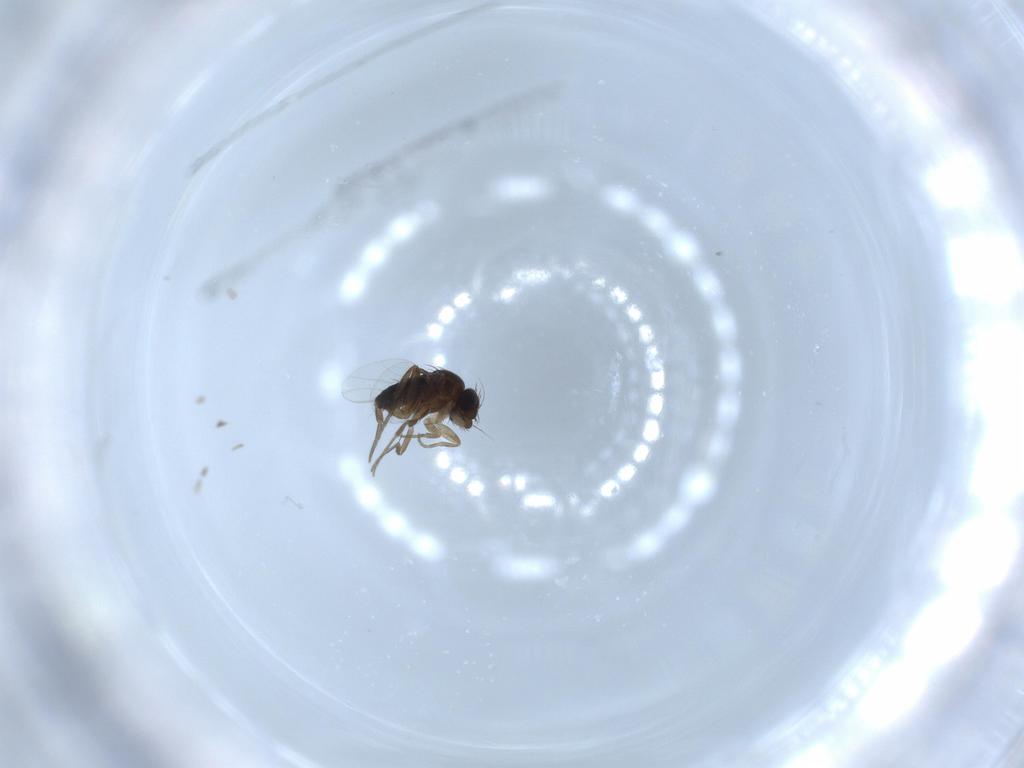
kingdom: Animalia
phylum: Arthropoda
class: Insecta
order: Diptera
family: Phoridae
